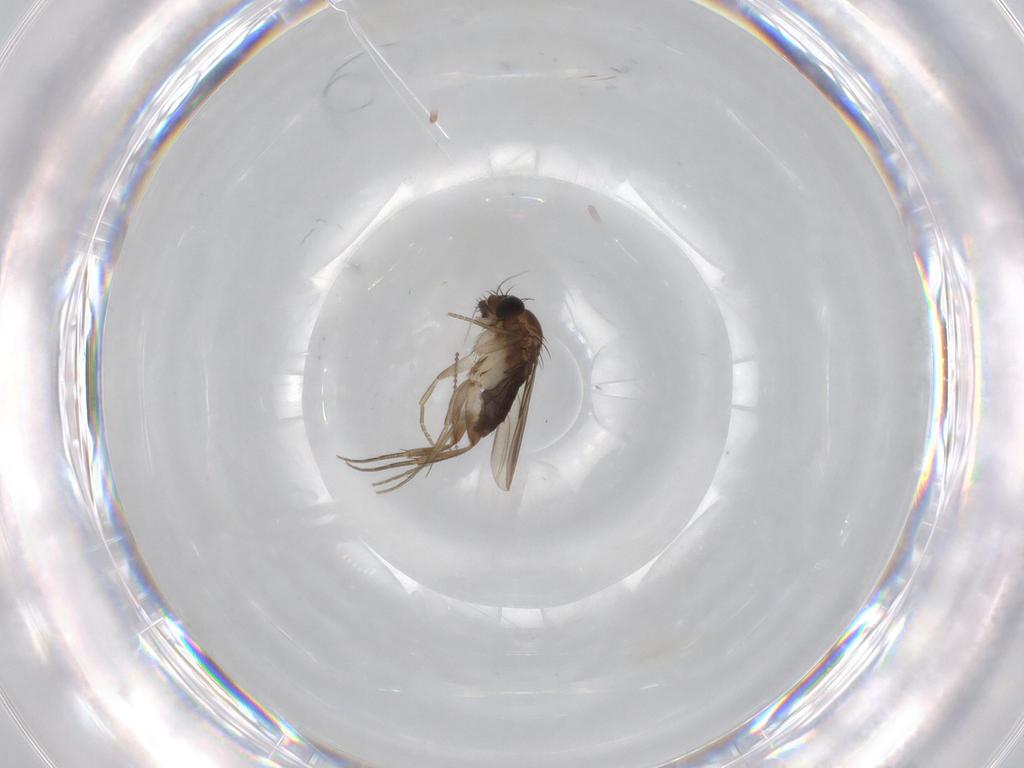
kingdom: Animalia
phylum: Arthropoda
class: Insecta
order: Diptera
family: Phoridae
